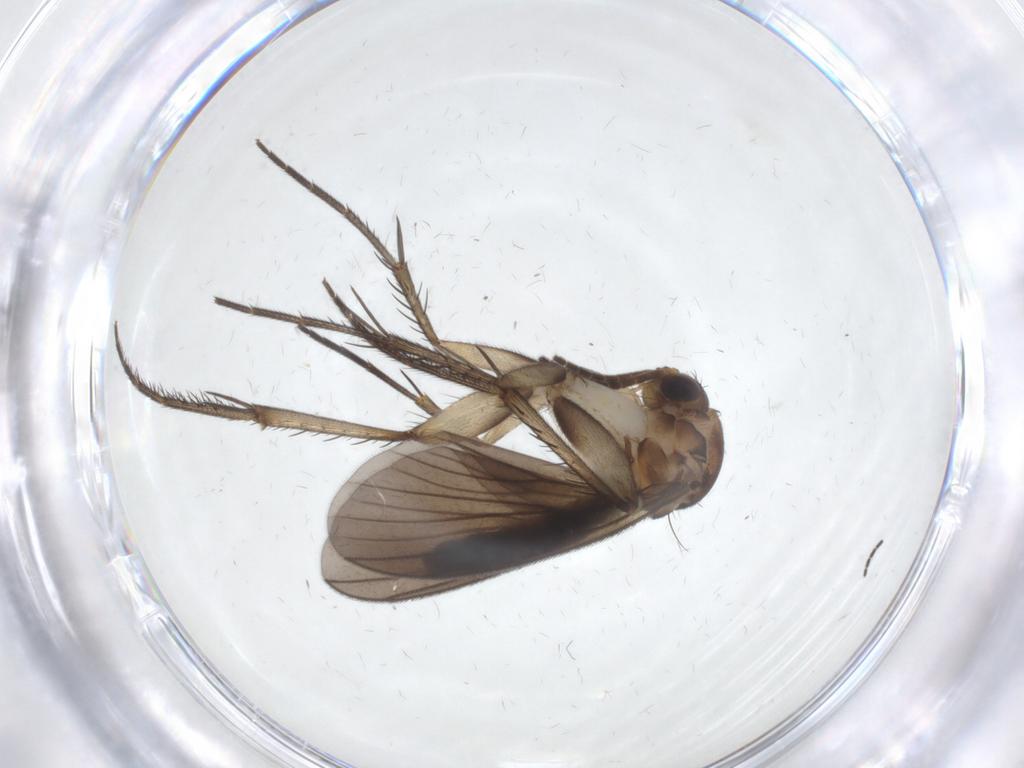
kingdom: Animalia
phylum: Arthropoda
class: Insecta
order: Diptera
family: Mycetophilidae
